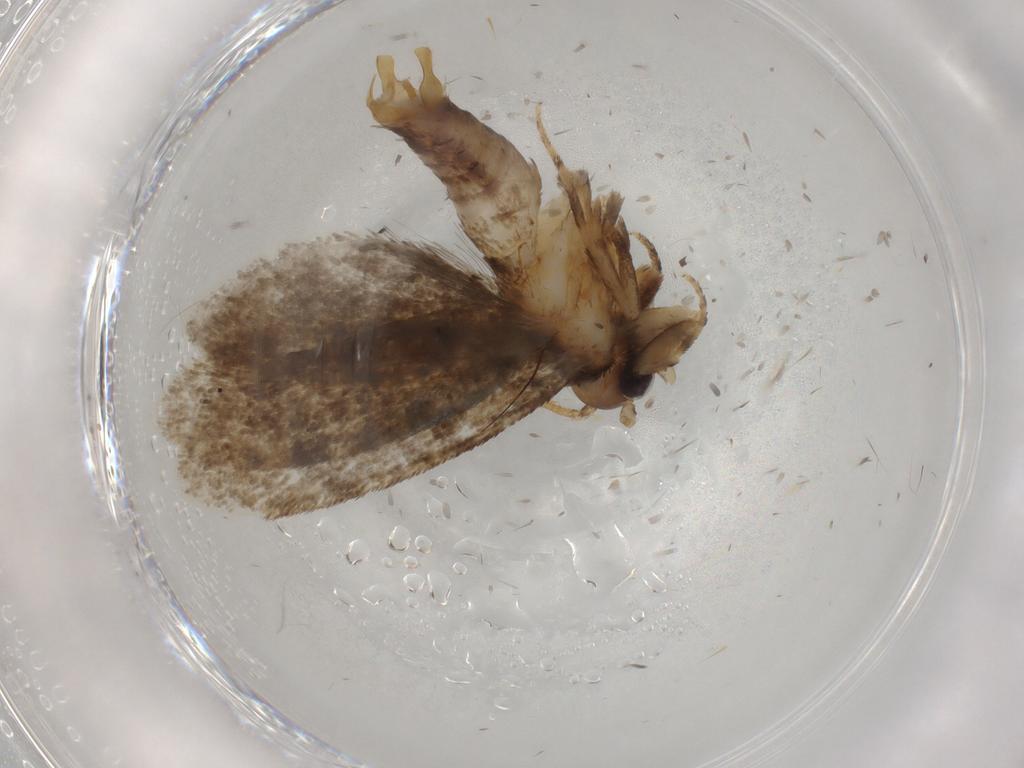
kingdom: Animalia
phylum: Arthropoda
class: Insecta
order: Lepidoptera
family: Tineidae
